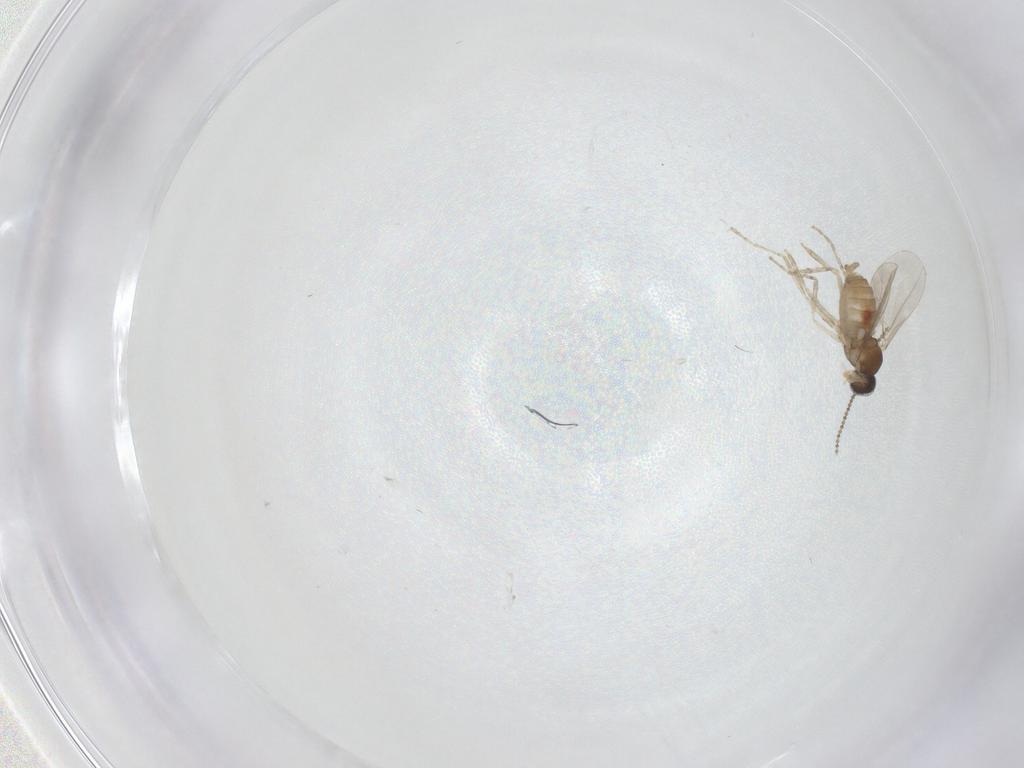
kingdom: Animalia
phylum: Arthropoda
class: Insecta
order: Diptera
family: Cecidomyiidae
